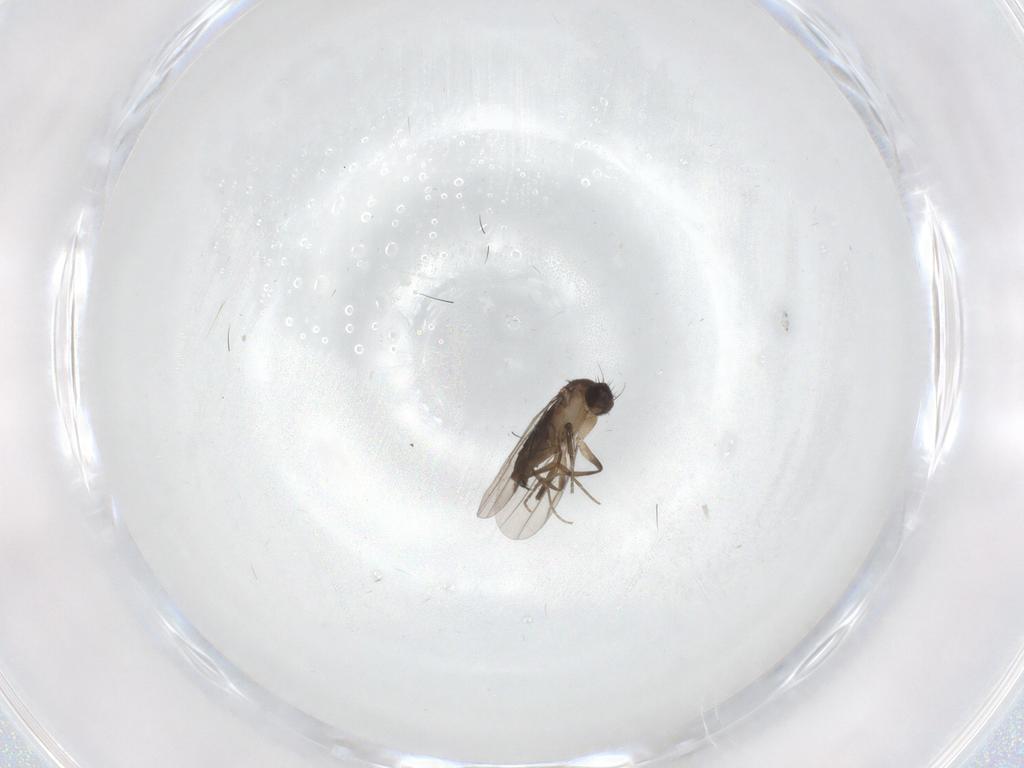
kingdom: Animalia
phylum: Arthropoda
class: Insecta
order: Diptera
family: Phoridae
